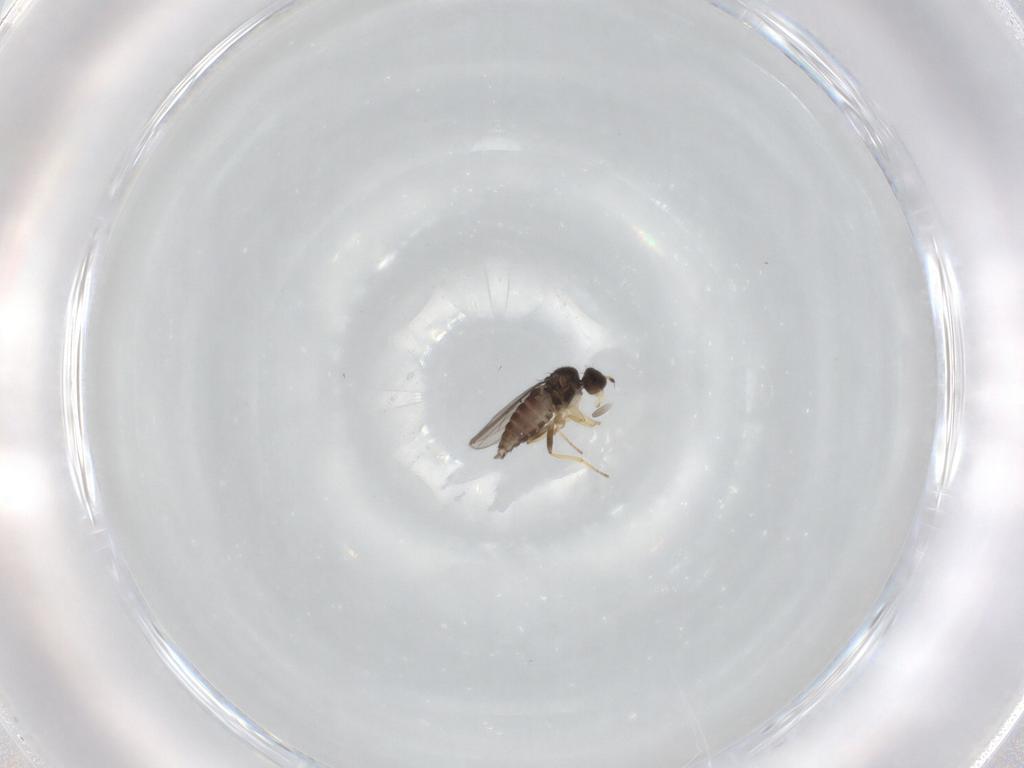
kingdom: Animalia
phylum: Arthropoda
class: Insecta
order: Diptera
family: Hybotidae
